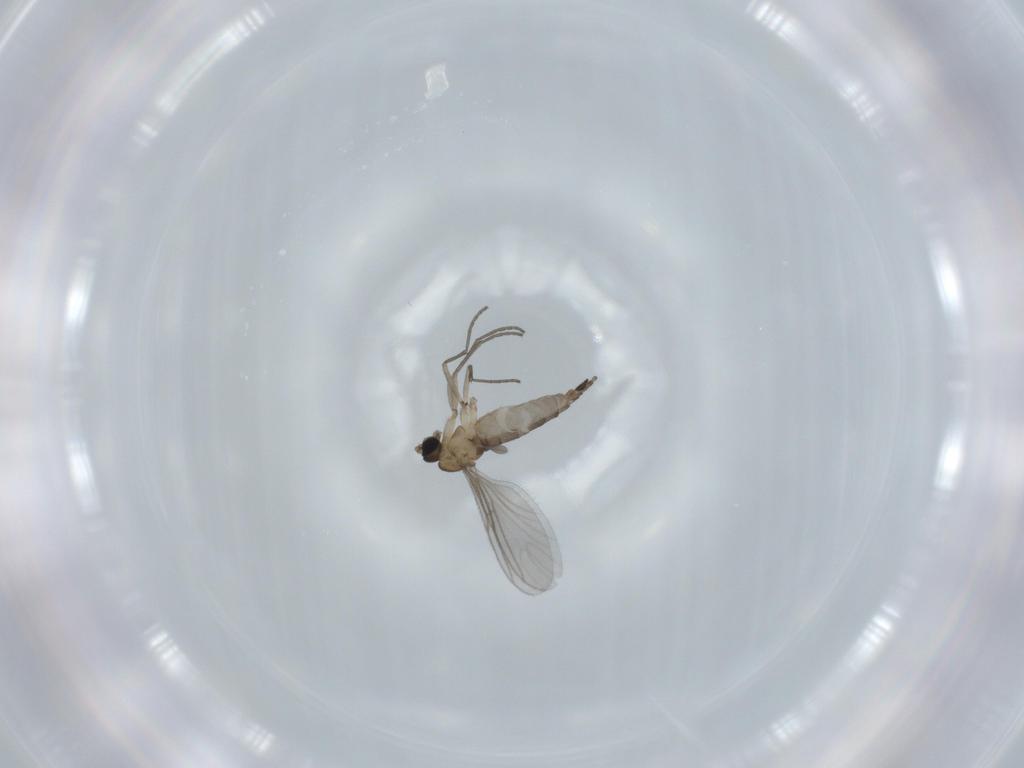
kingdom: Animalia
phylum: Arthropoda
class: Insecta
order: Diptera
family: Sciaridae
